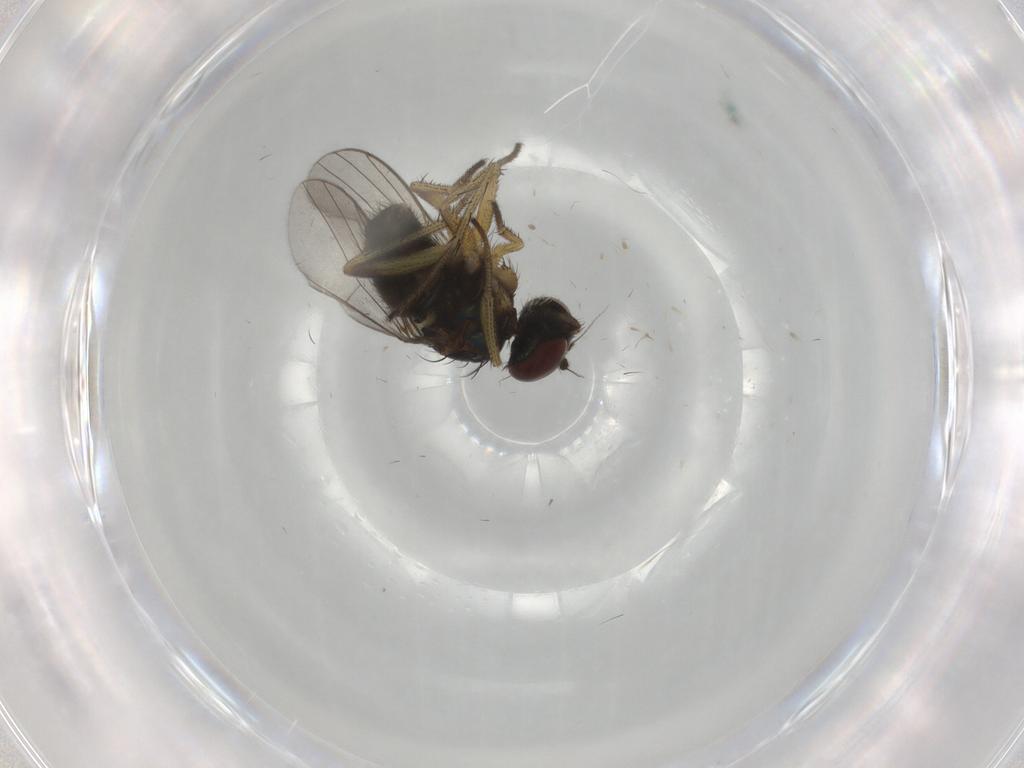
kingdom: Animalia
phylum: Arthropoda
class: Insecta
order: Diptera
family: Dolichopodidae
